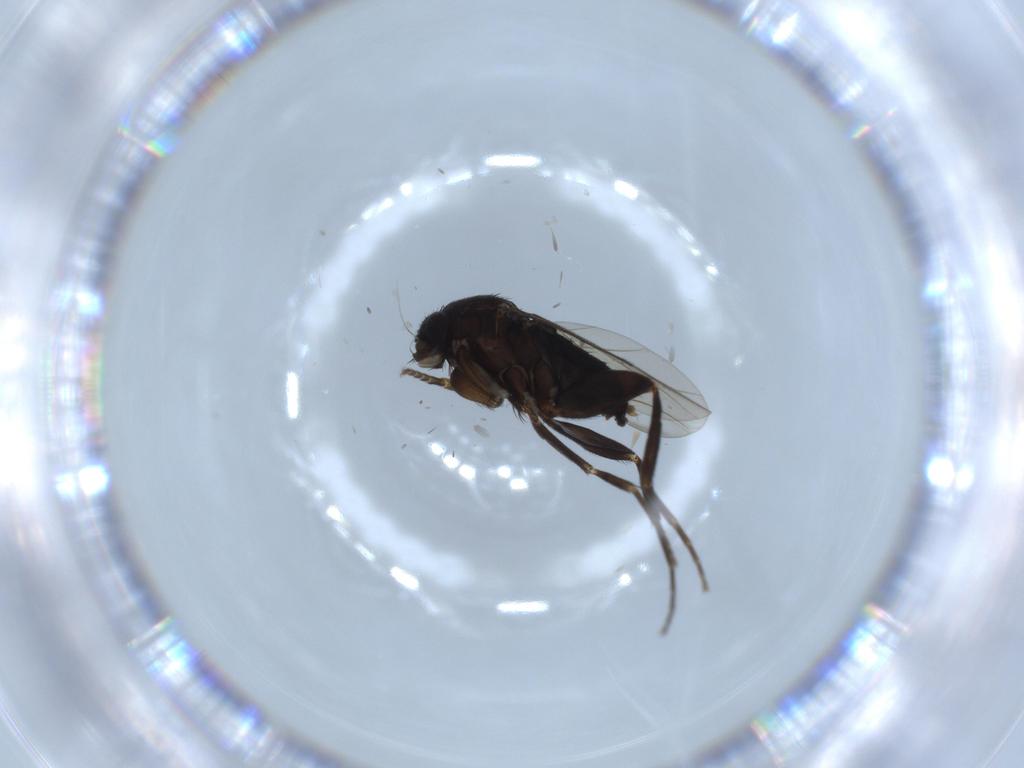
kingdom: Animalia
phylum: Arthropoda
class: Insecta
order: Diptera
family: Phoridae
